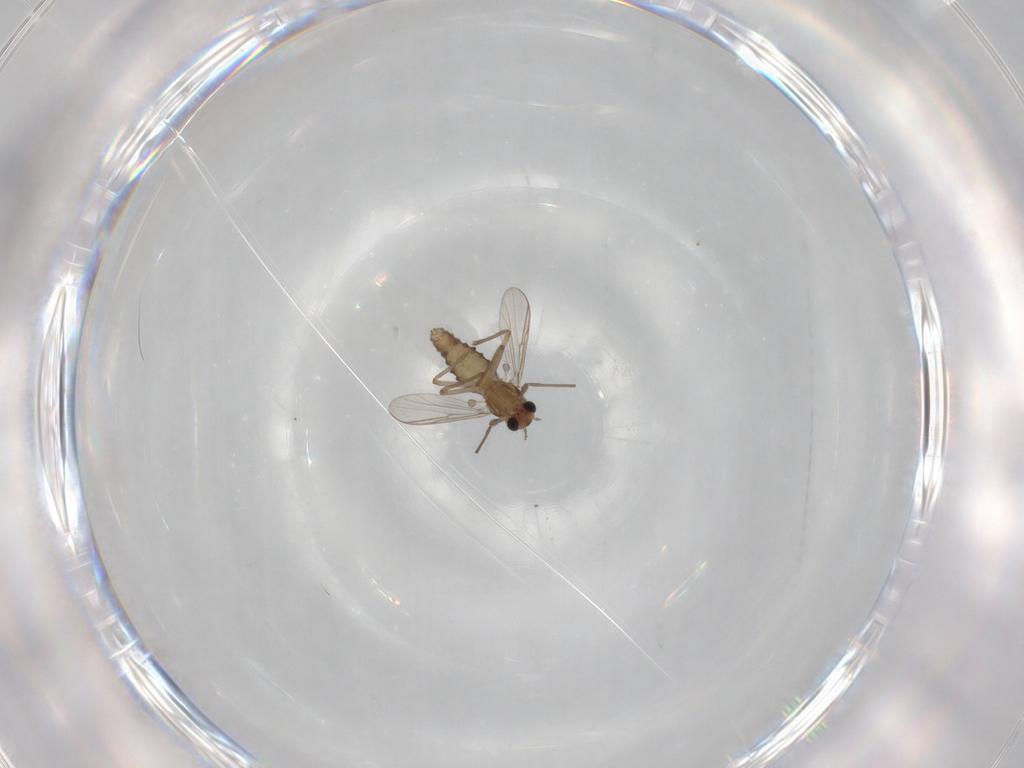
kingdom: Animalia
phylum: Arthropoda
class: Insecta
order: Diptera
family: Chironomidae
